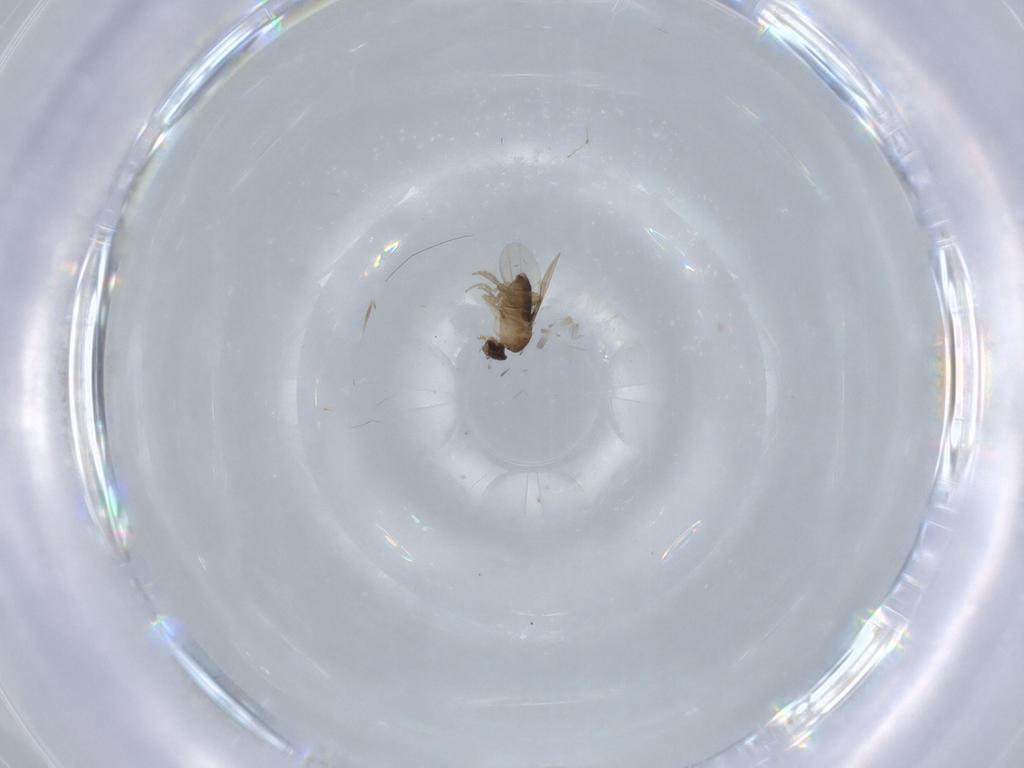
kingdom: Animalia
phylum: Arthropoda
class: Insecta
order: Diptera
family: Phoridae
